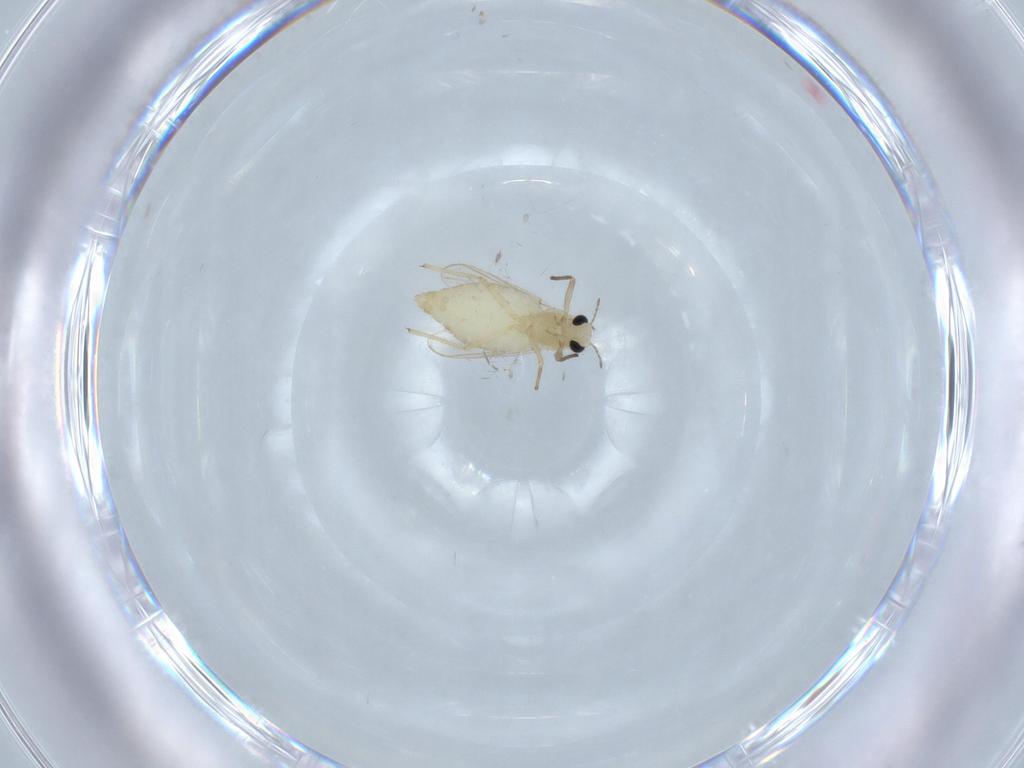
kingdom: Animalia
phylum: Arthropoda
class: Insecta
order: Diptera
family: Chironomidae
